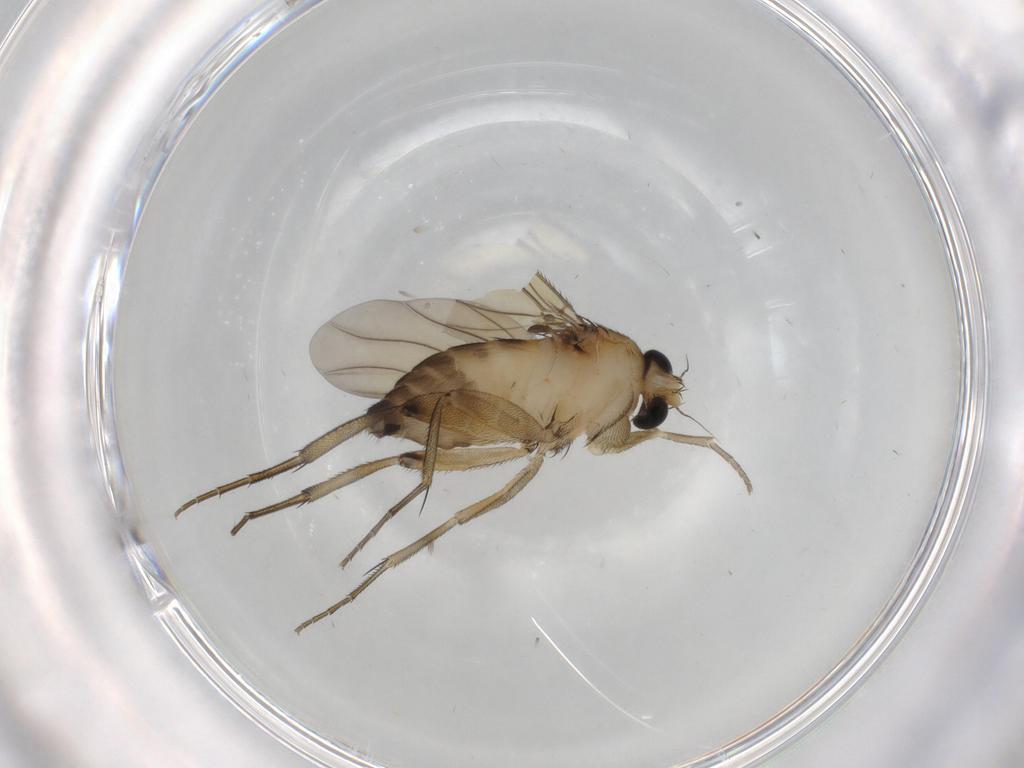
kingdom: Animalia
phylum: Arthropoda
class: Insecta
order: Diptera
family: Phoridae
